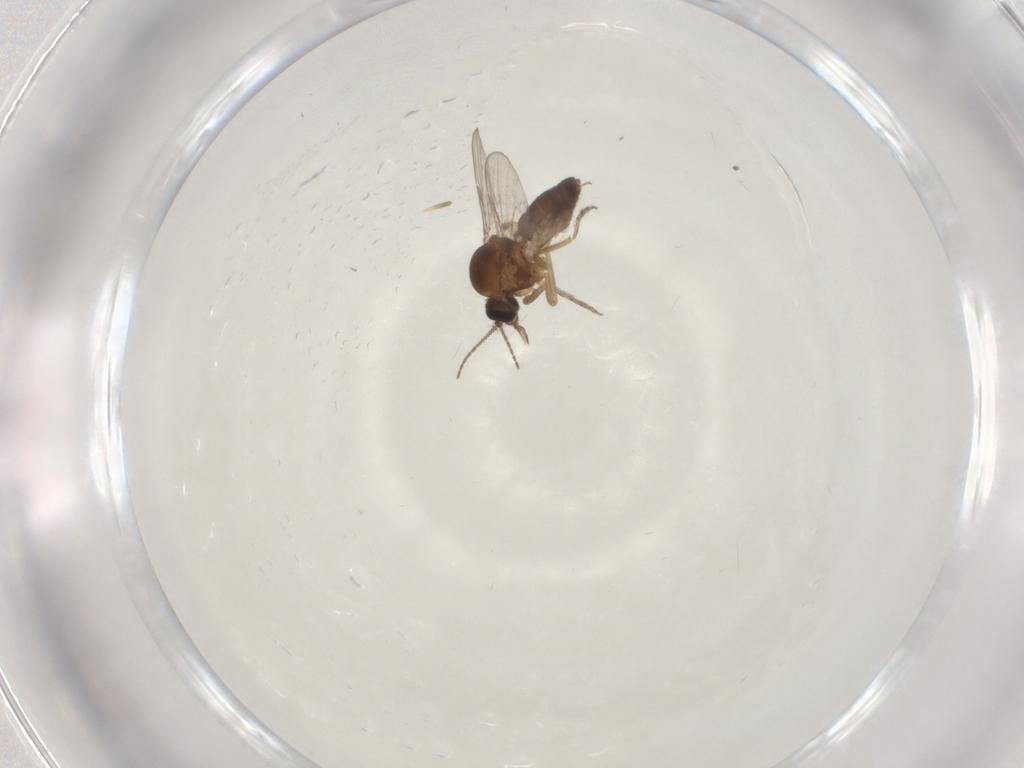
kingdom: Animalia
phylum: Arthropoda
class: Insecta
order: Diptera
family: Ceratopogonidae
